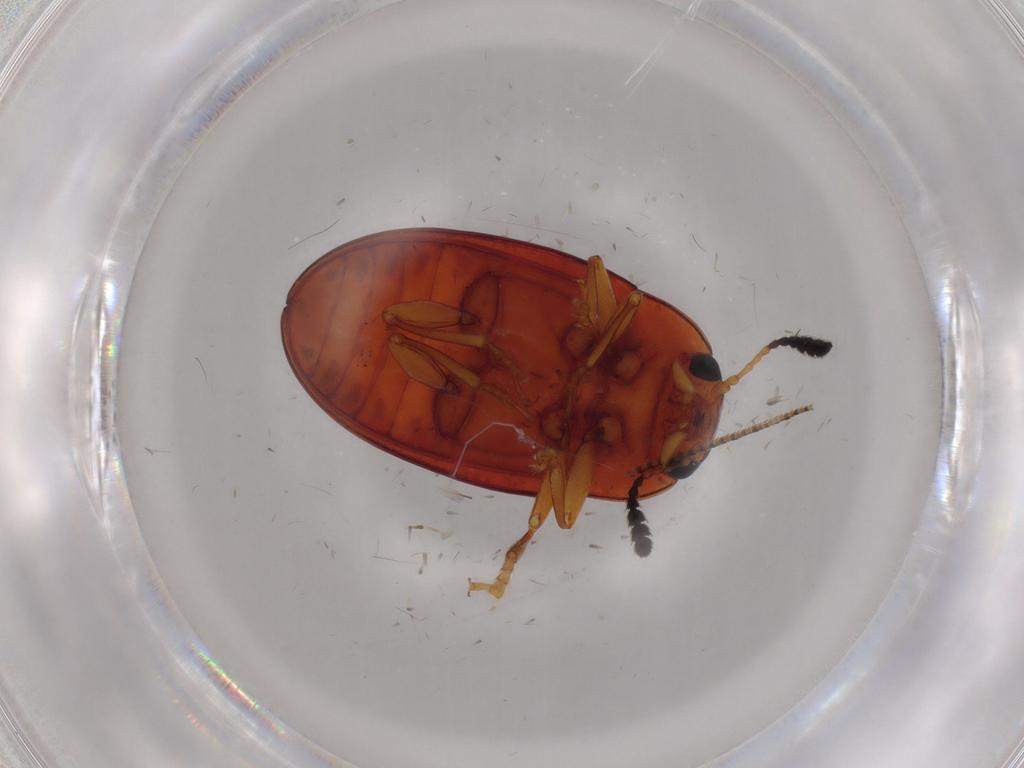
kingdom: Animalia
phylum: Arthropoda
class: Insecta
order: Coleoptera
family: Erotylidae
